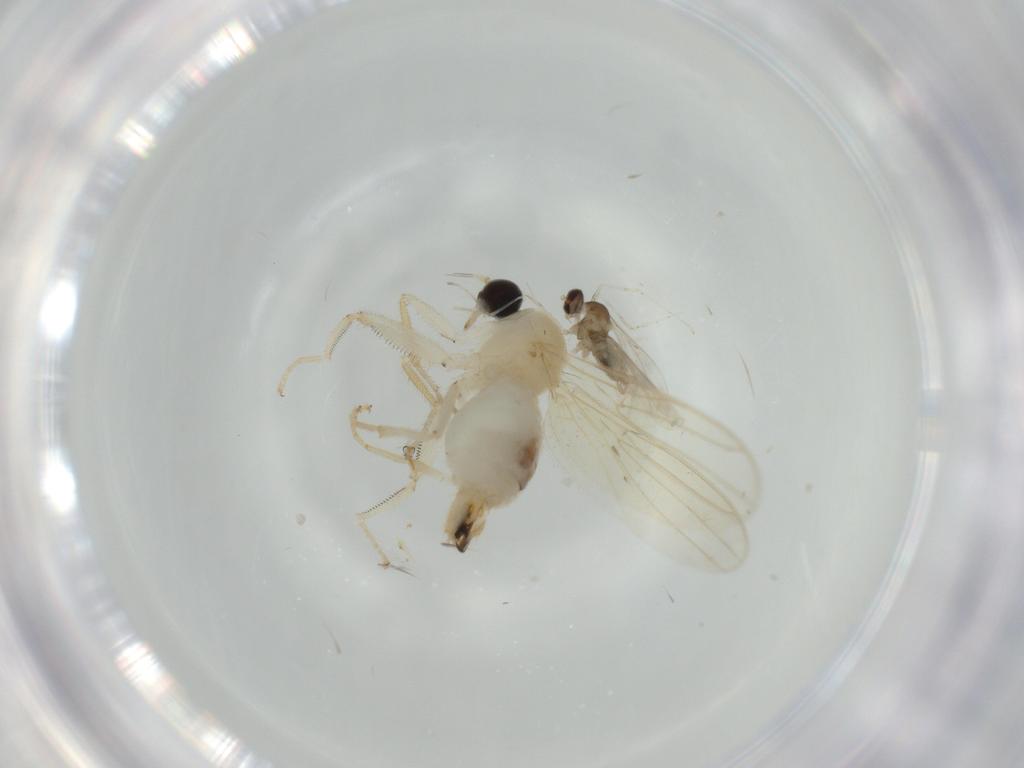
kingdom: Animalia
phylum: Arthropoda
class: Insecta
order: Diptera
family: Hybotidae
